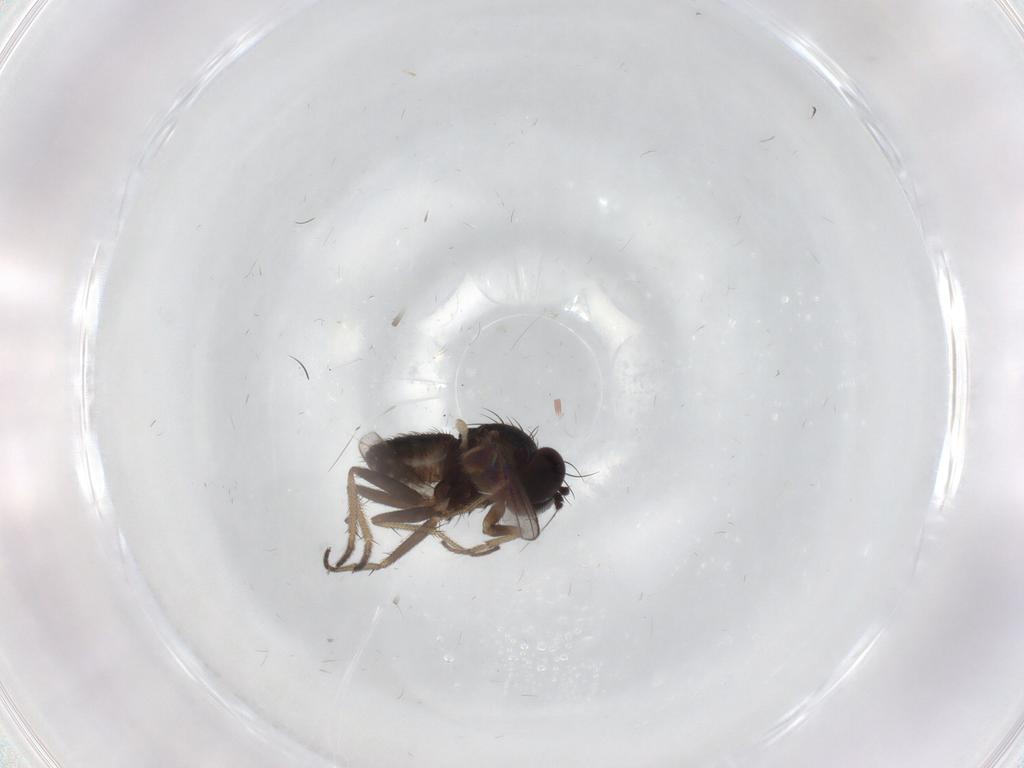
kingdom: Animalia
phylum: Arthropoda
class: Insecta
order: Diptera
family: Dolichopodidae
